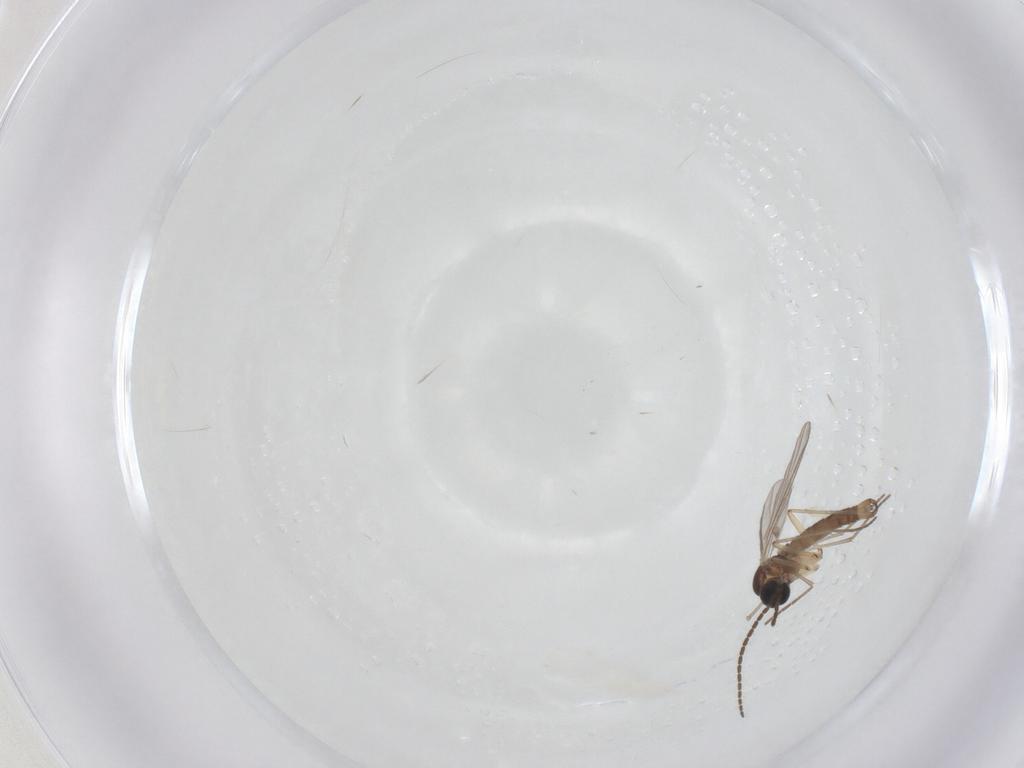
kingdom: Animalia
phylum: Arthropoda
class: Insecta
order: Diptera
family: Sciaridae
